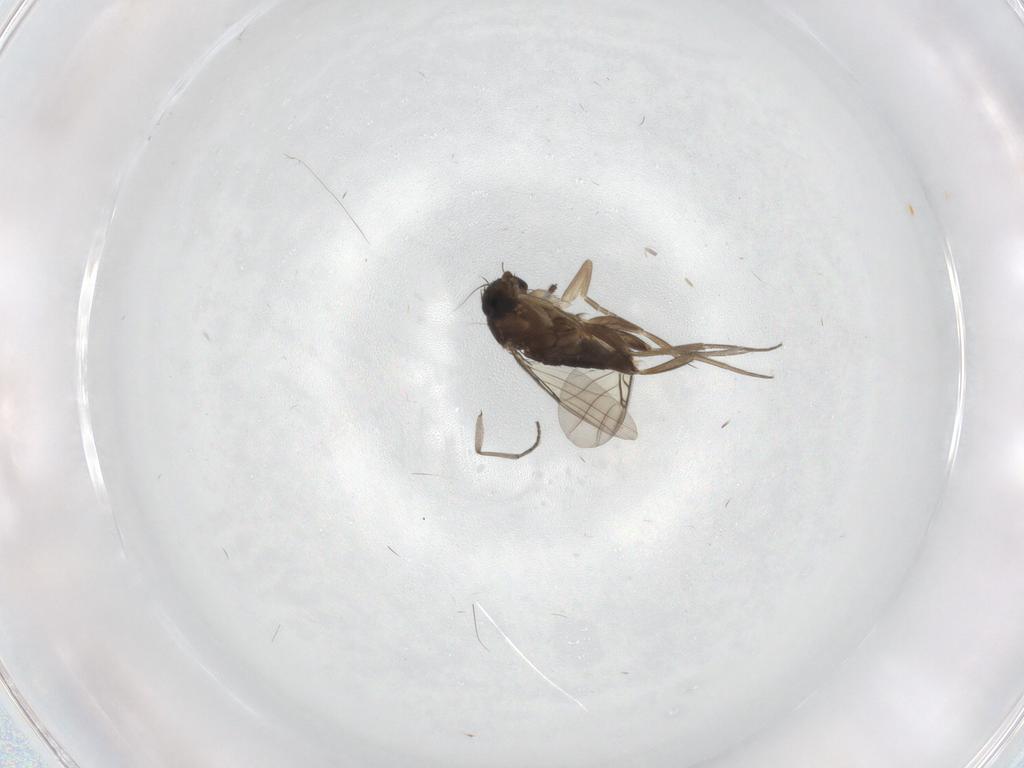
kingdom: Animalia
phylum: Arthropoda
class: Insecta
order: Diptera
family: Phoridae
